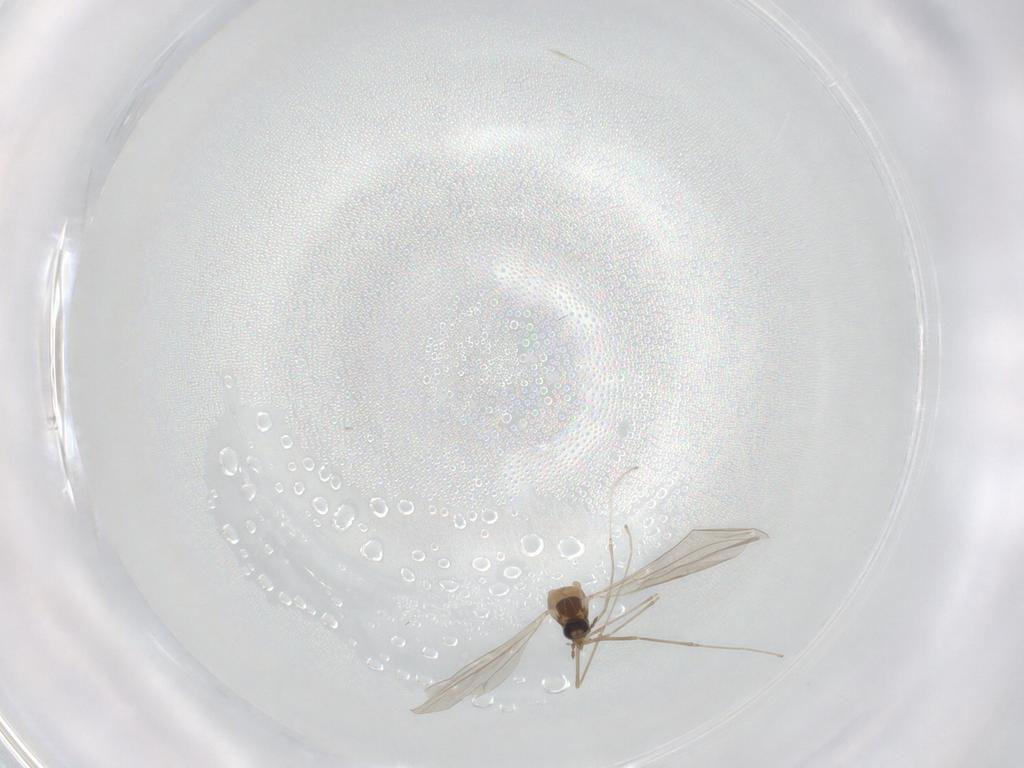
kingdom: Animalia
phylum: Arthropoda
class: Insecta
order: Diptera
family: Cecidomyiidae
